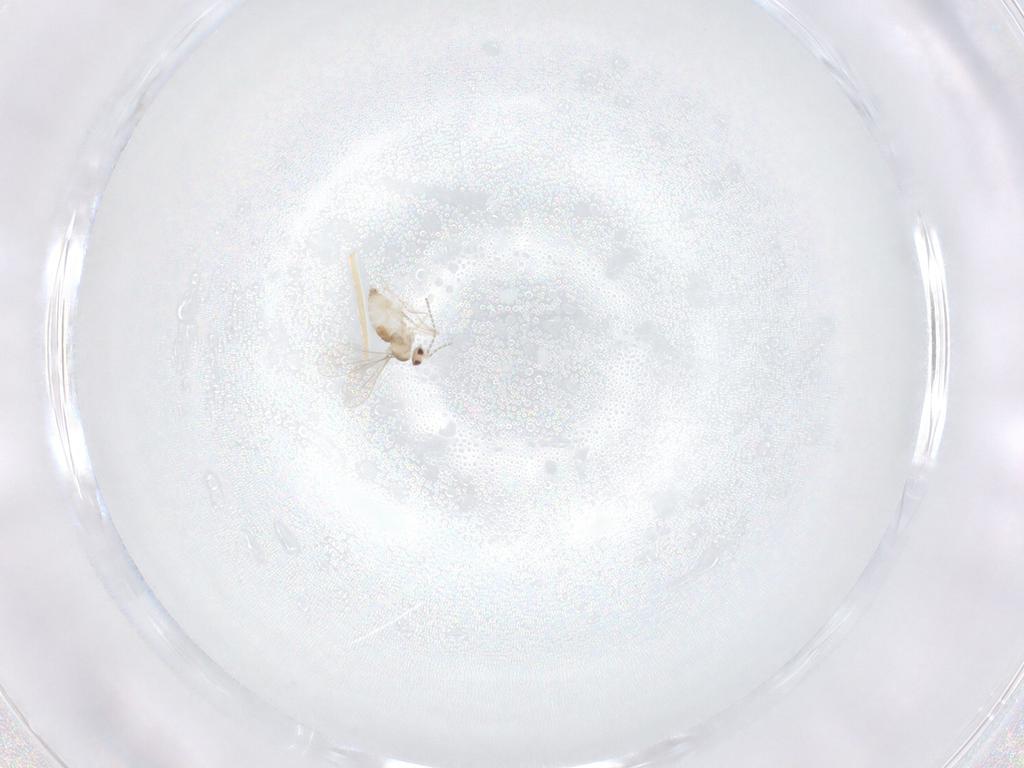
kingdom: Animalia
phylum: Arthropoda
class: Insecta
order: Diptera
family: Cecidomyiidae
